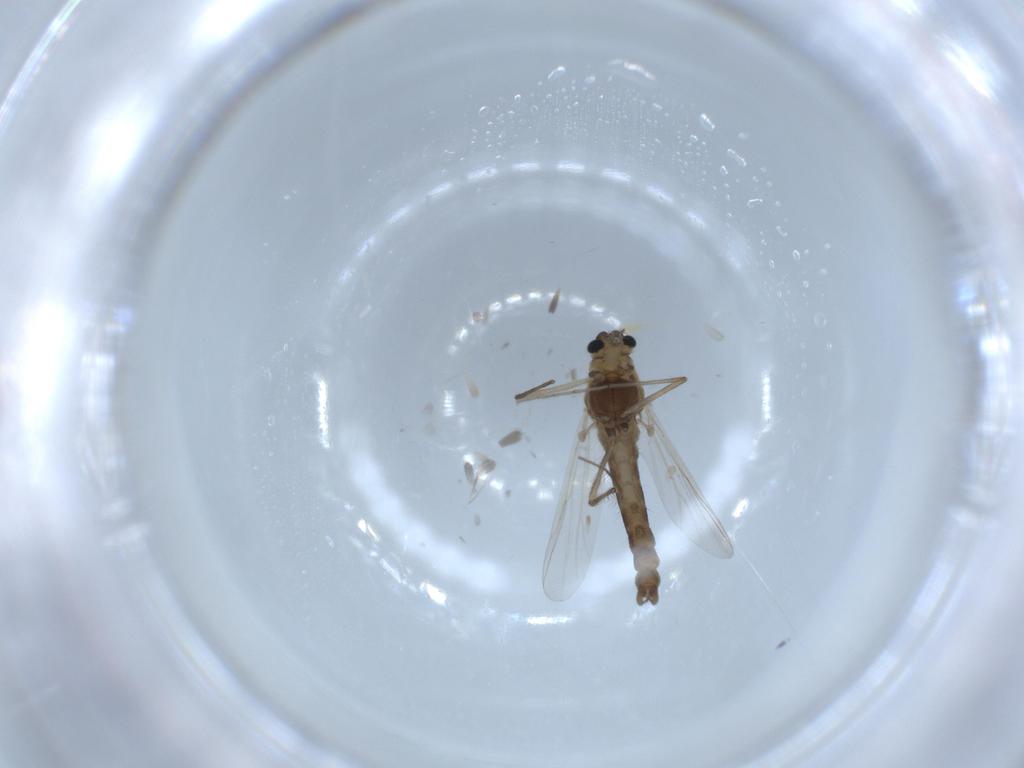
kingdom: Animalia
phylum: Arthropoda
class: Insecta
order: Diptera
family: Chironomidae
